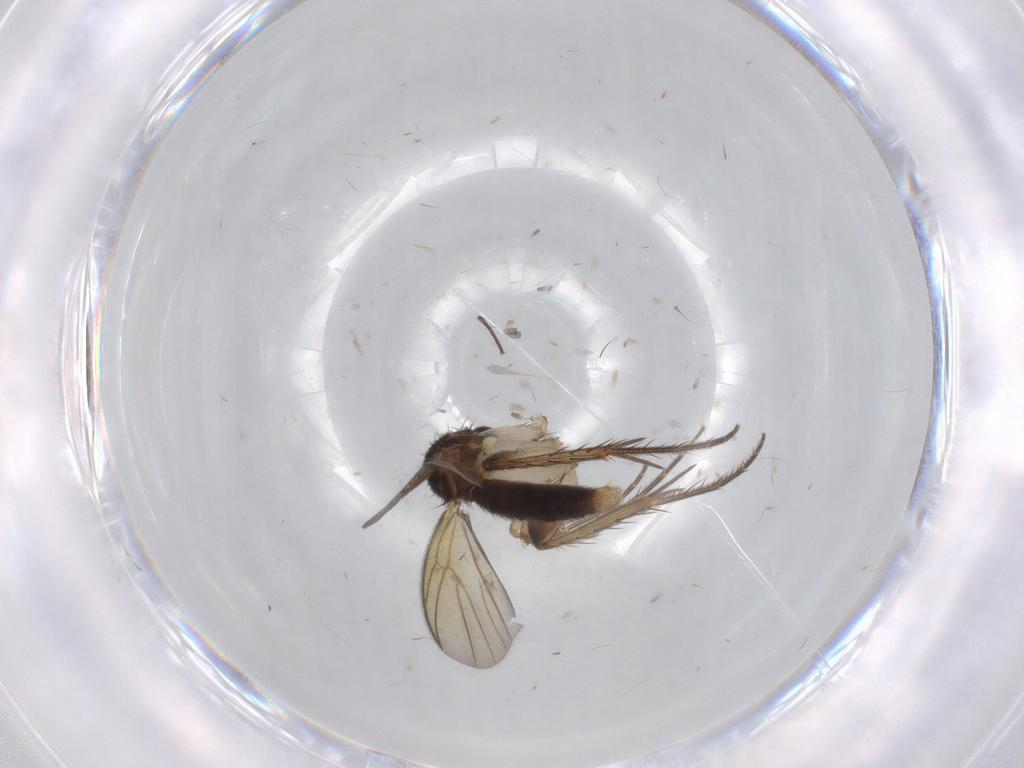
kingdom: Animalia
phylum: Arthropoda
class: Insecta
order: Diptera
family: Mycetophilidae
